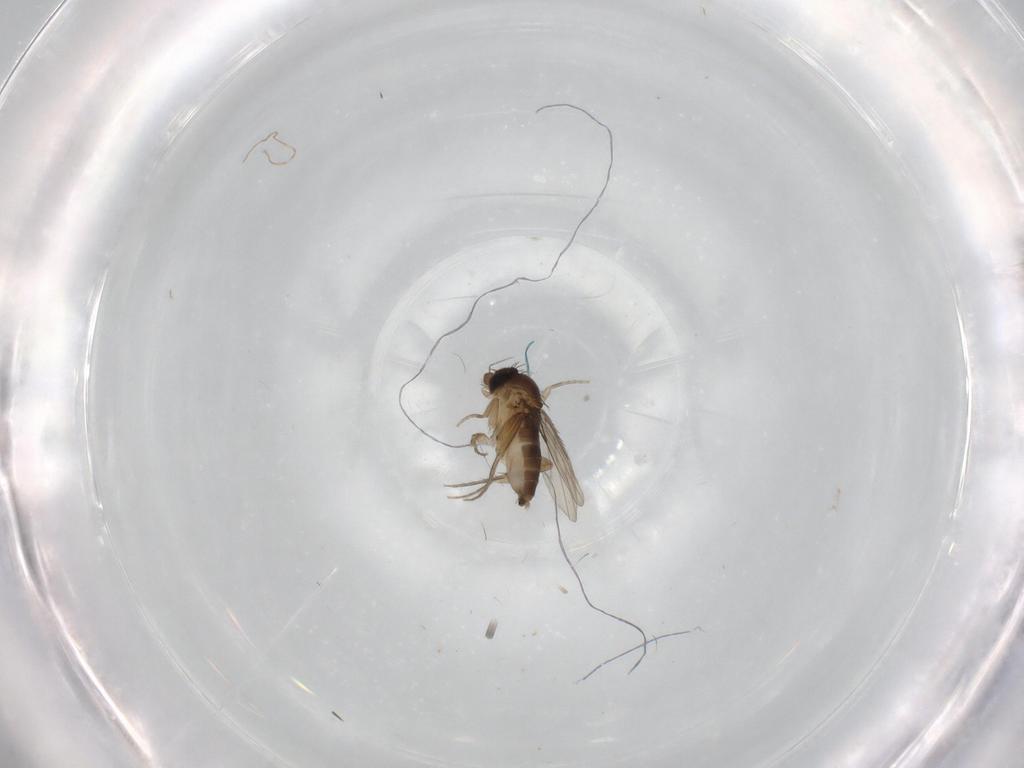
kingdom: Animalia
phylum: Arthropoda
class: Insecta
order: Diptera
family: Phoridae
